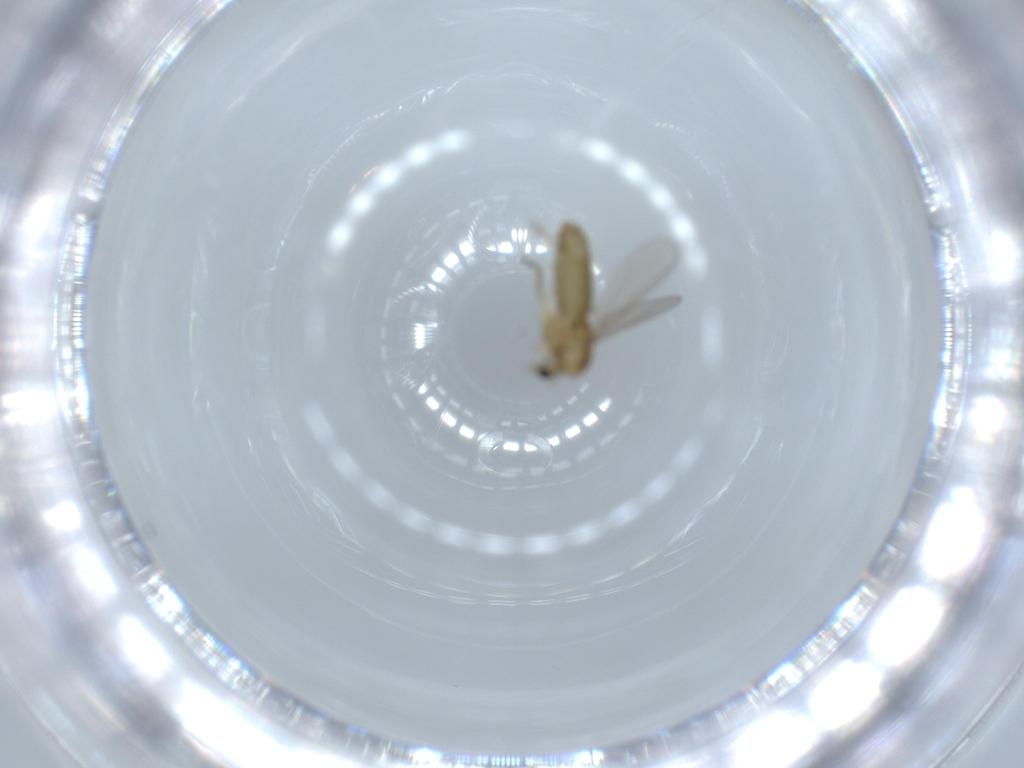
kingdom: Animalia
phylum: Arthropoda
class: Insecta
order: Diptera
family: Chironomidae
